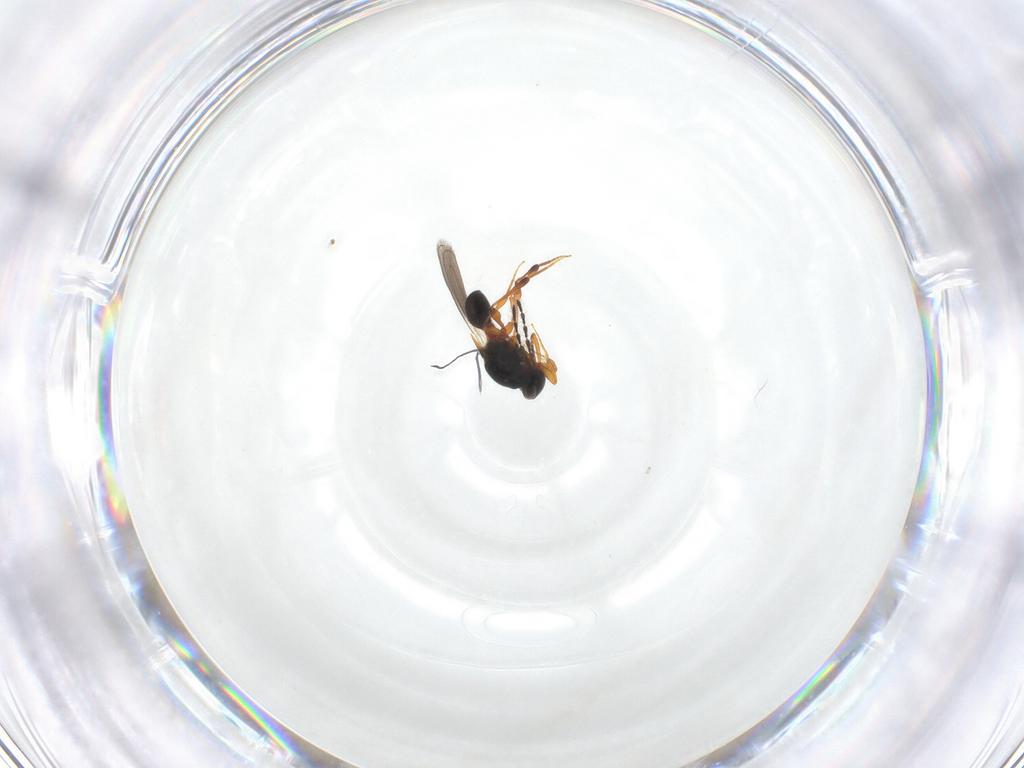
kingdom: Animalia
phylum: Arthropoda
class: Insecta
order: Hymenoptera
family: Platygastridae
